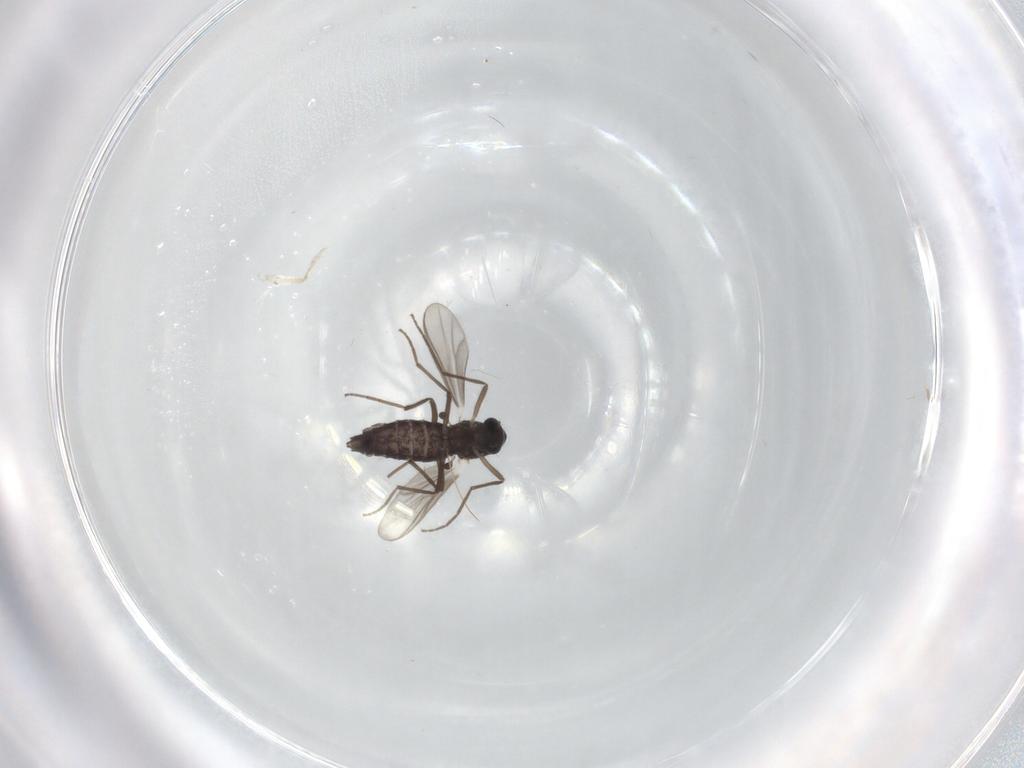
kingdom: Animalia
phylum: Arthropoda
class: Insecta
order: Diptera
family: Chironomidae
